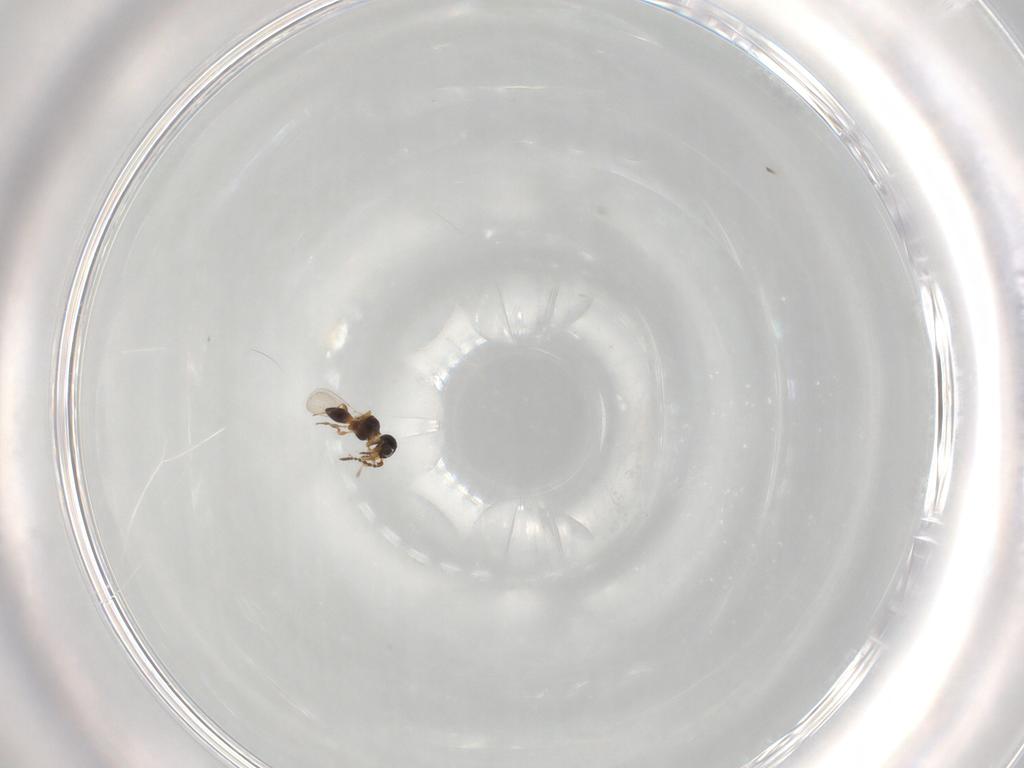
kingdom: Animalia
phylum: Arthropoda
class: Insecta
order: Hymenoptera
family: Platygastridae
